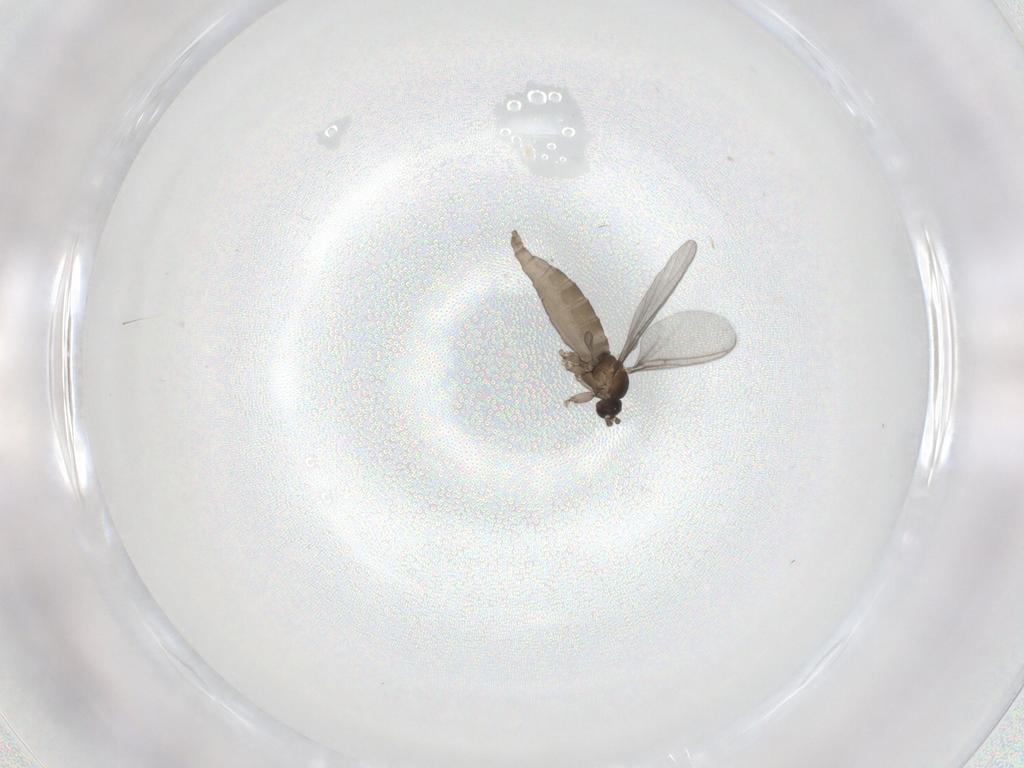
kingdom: Animalia
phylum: Arthropoda
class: Insecta
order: Diptera
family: Sciaridae
